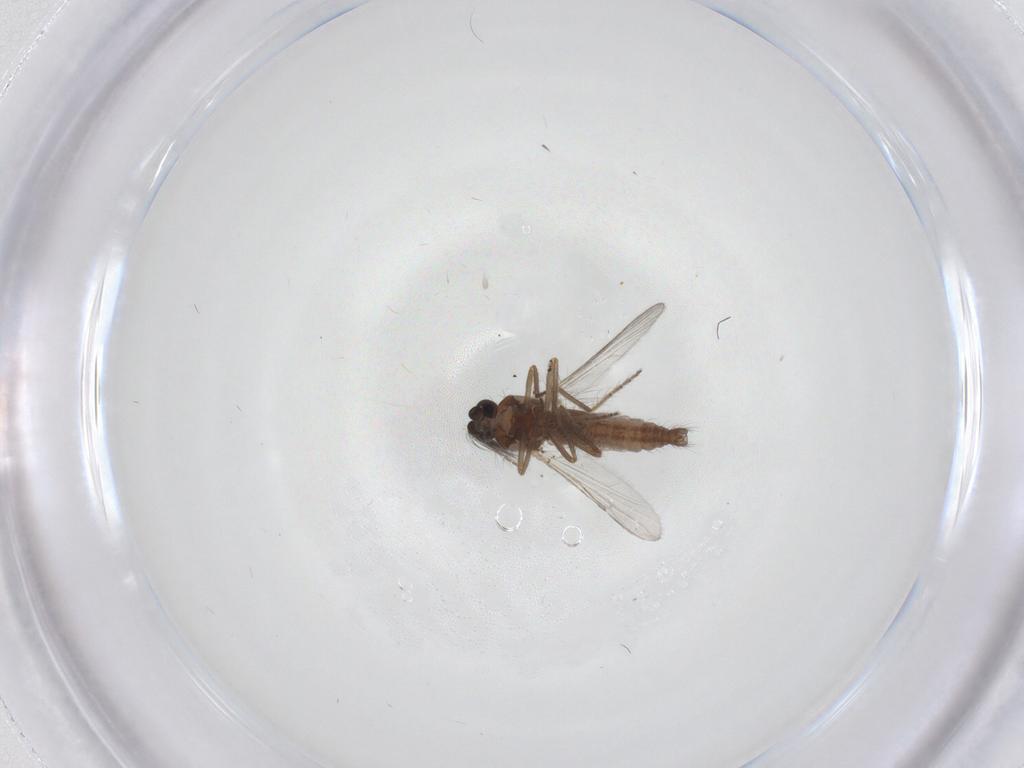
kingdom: Animalia
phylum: Arthropoda
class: Insecta
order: Diptera
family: Ceratopogonidae
